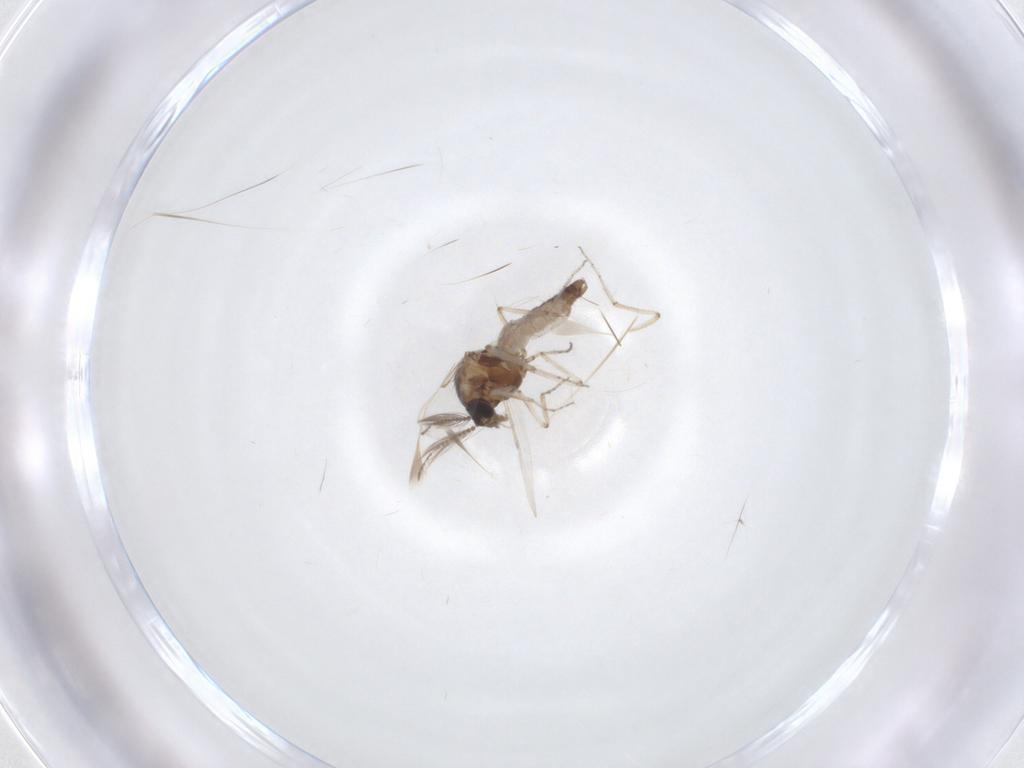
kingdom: Animalia
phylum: Arthropoda
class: Insecta
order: Diptera
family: Ceratopogonidae
